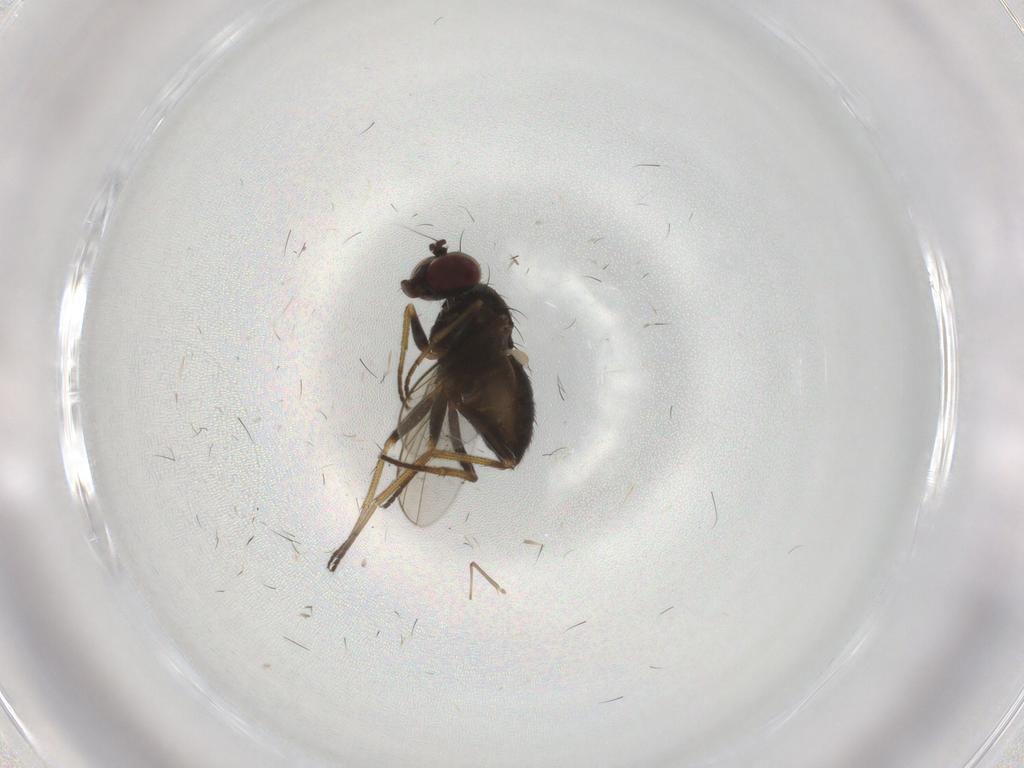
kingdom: Animalia
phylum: Arthropoda
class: Insecta
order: Diptera
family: Dolichopodidae
